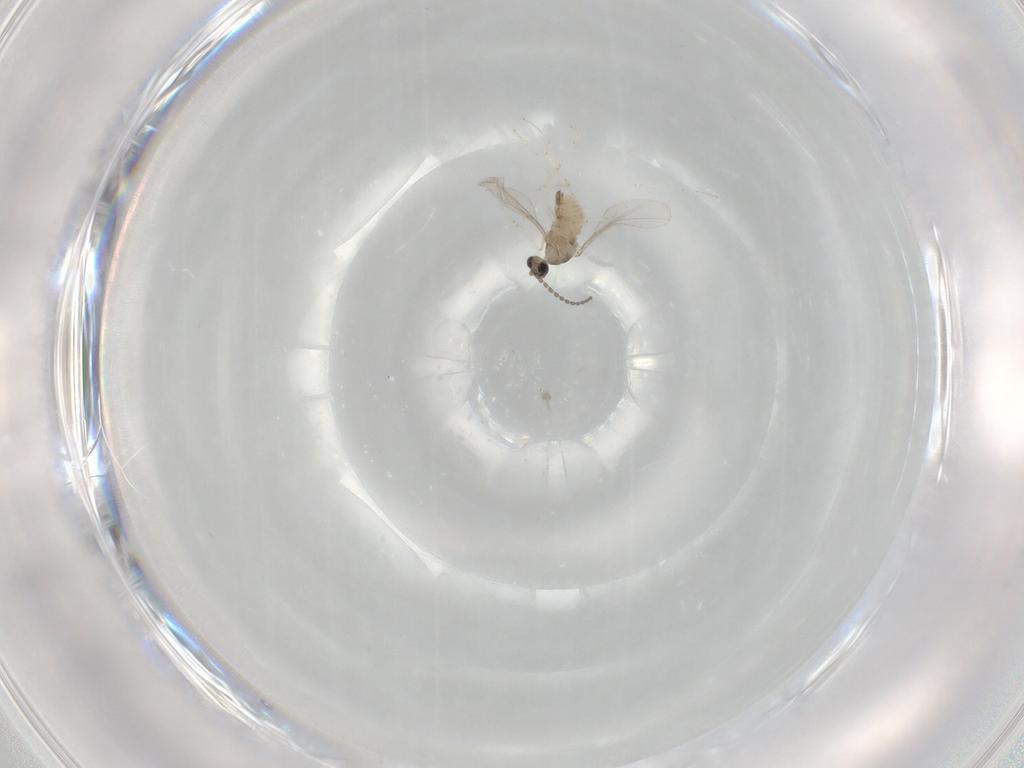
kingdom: Animalia
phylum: Arthropoda
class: Insecta
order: Diptera
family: Cecidomyiidae
